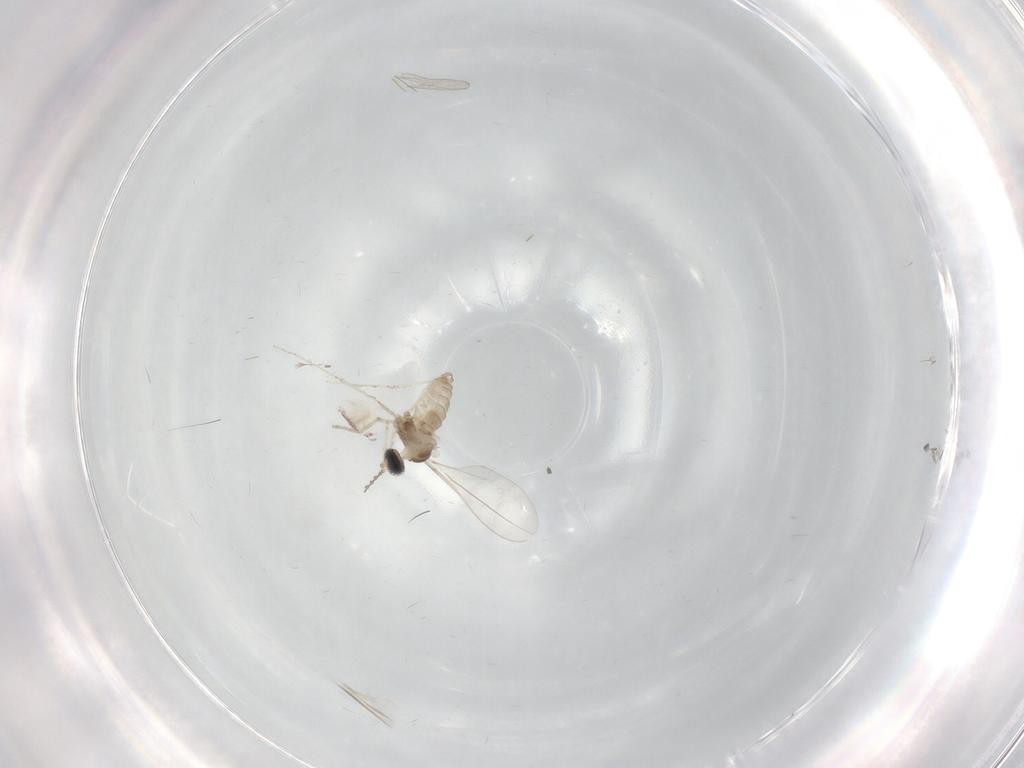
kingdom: Animalia
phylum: Arthropoda
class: Insecta
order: Diptera
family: Cecidomyiidae
